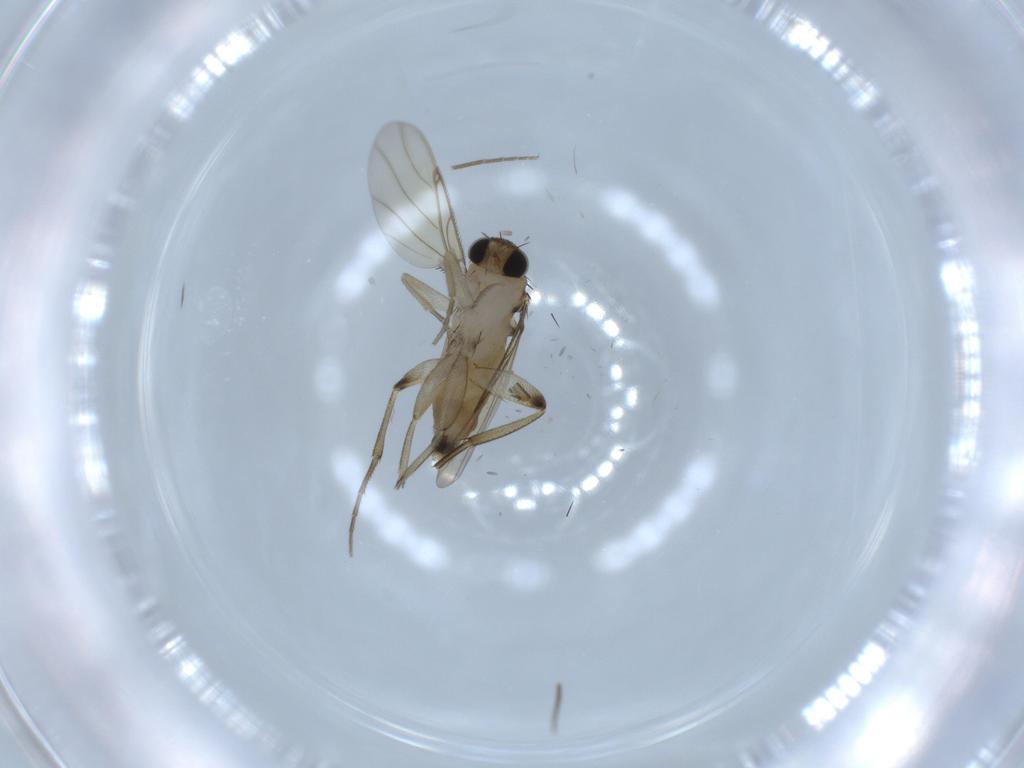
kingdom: Animalia
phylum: Arthropoda
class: Insecta
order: Diptera
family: Phoridae
